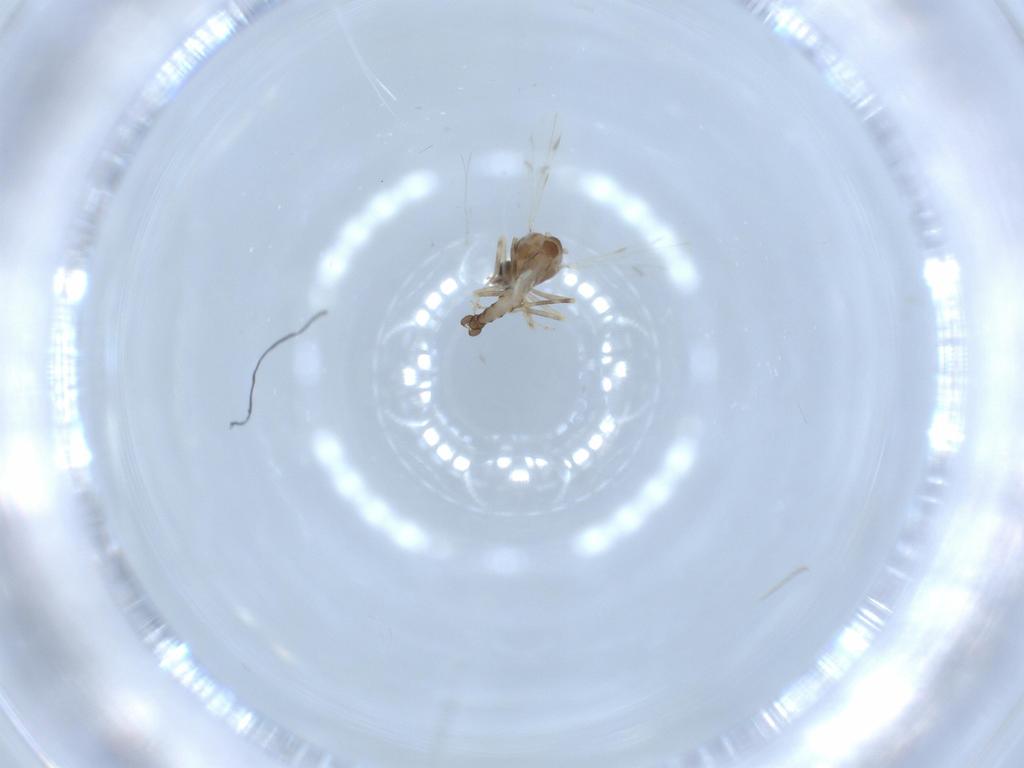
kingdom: Animalia
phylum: Arthropoda
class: Insecta
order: Diptera
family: Ceratopogonidae
